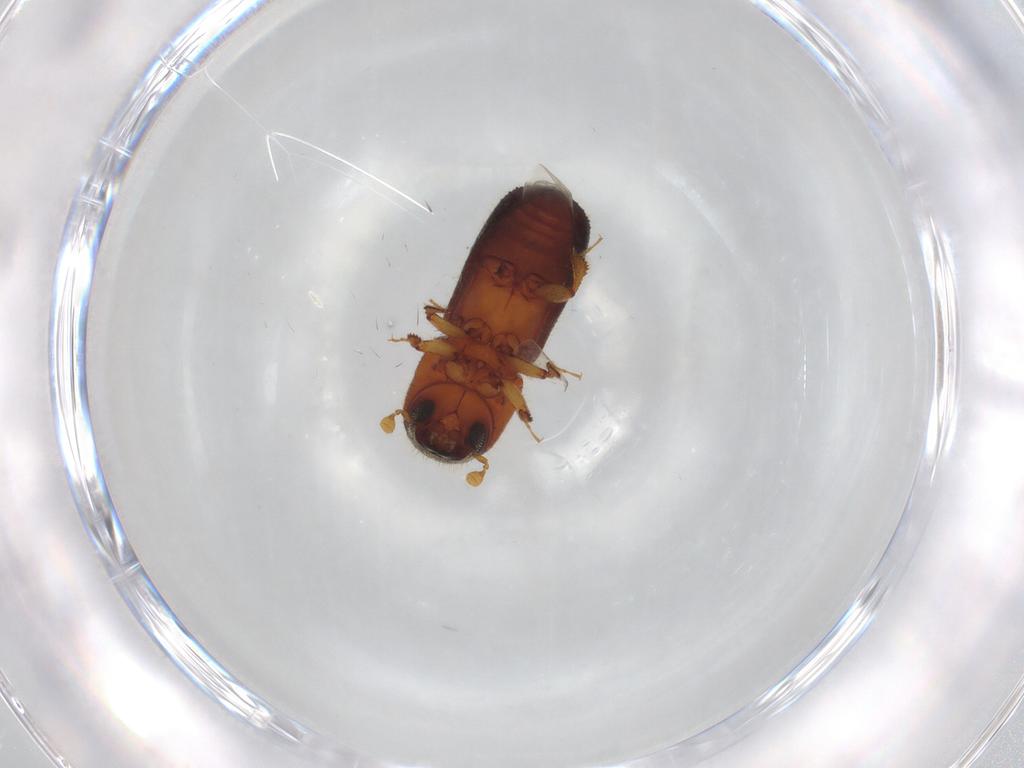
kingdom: Animalia
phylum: Arthropoda
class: Insecta
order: Coleoptera
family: Curculionidae
